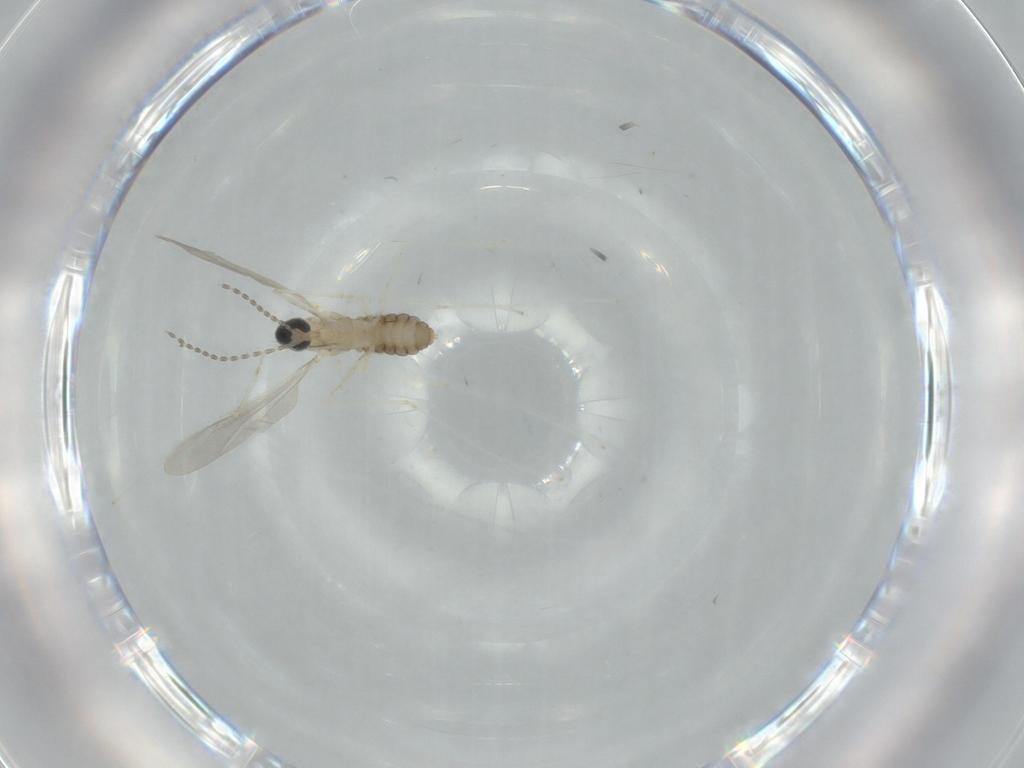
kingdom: Animalia
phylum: Arthropoda
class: Insecta
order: Diptera
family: Cecidomyiidae
